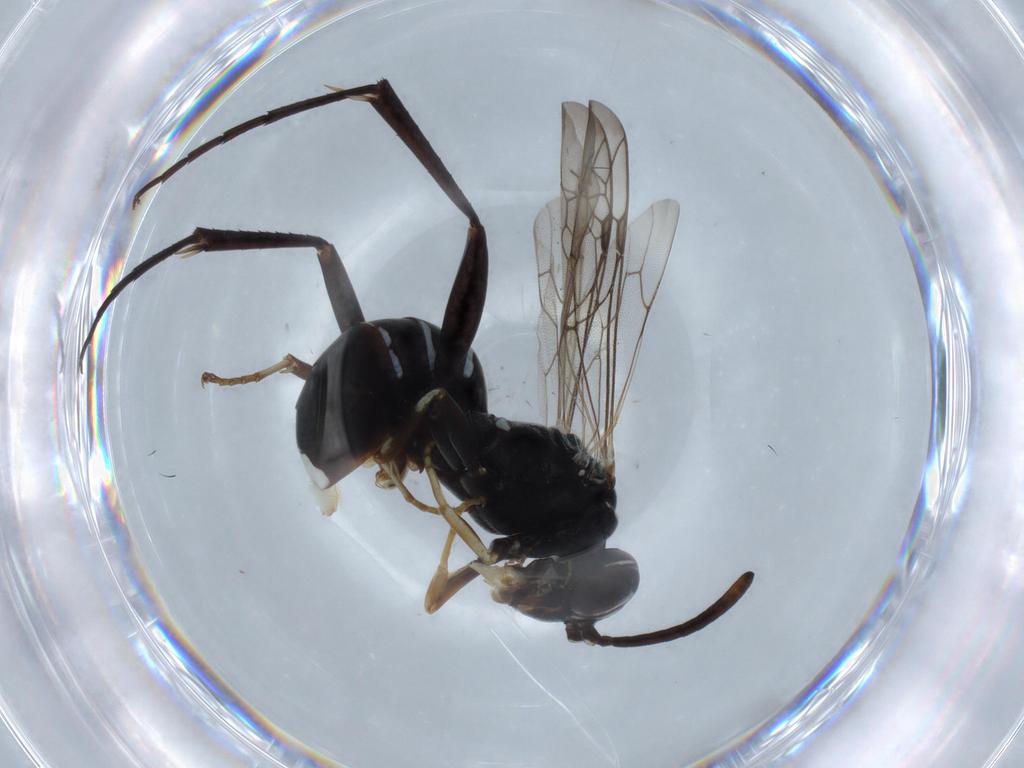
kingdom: Animalia
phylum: Arthropoda
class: Insecta
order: Hymenoptera
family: Pompilidae
